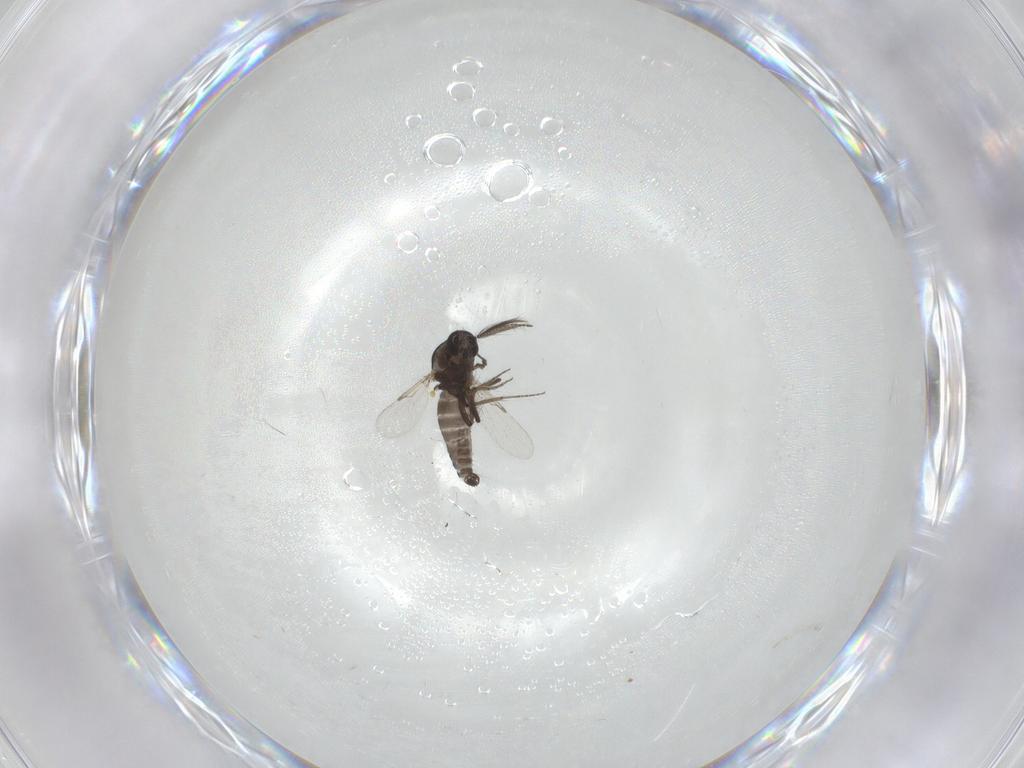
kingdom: Animalia
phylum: Arthropoda
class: Insecta
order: Diptera
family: Ceratopogonidae
